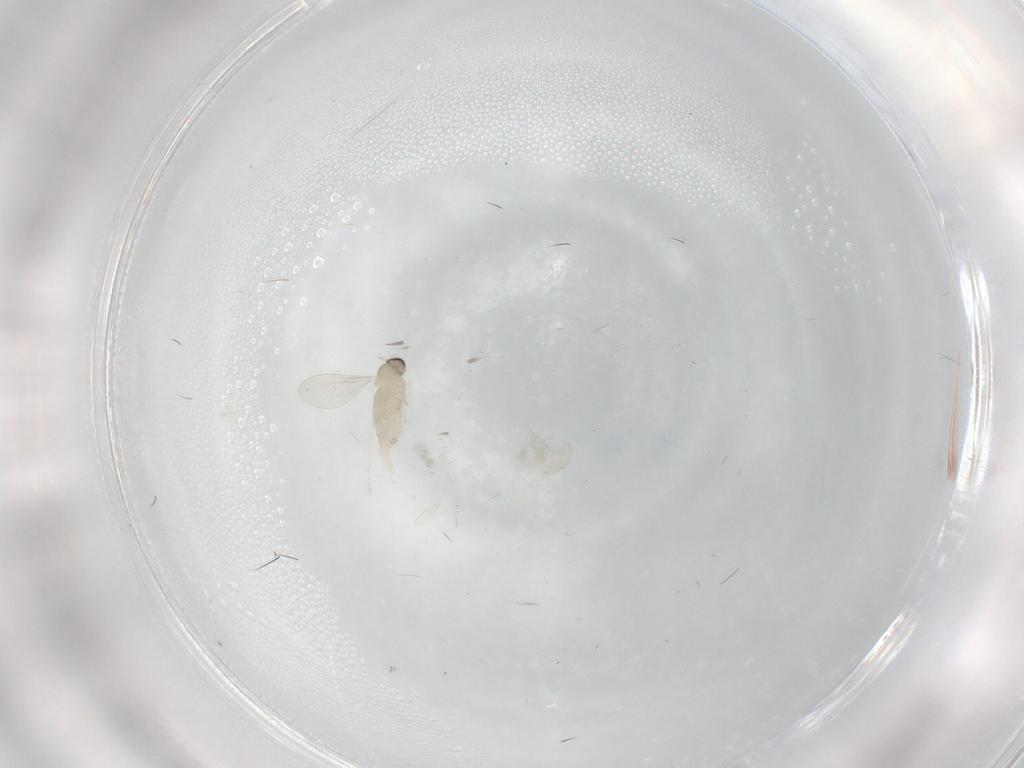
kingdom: Animalia
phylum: Arthropoda
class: Insecta
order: Diptera
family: Cecidomyiidae
